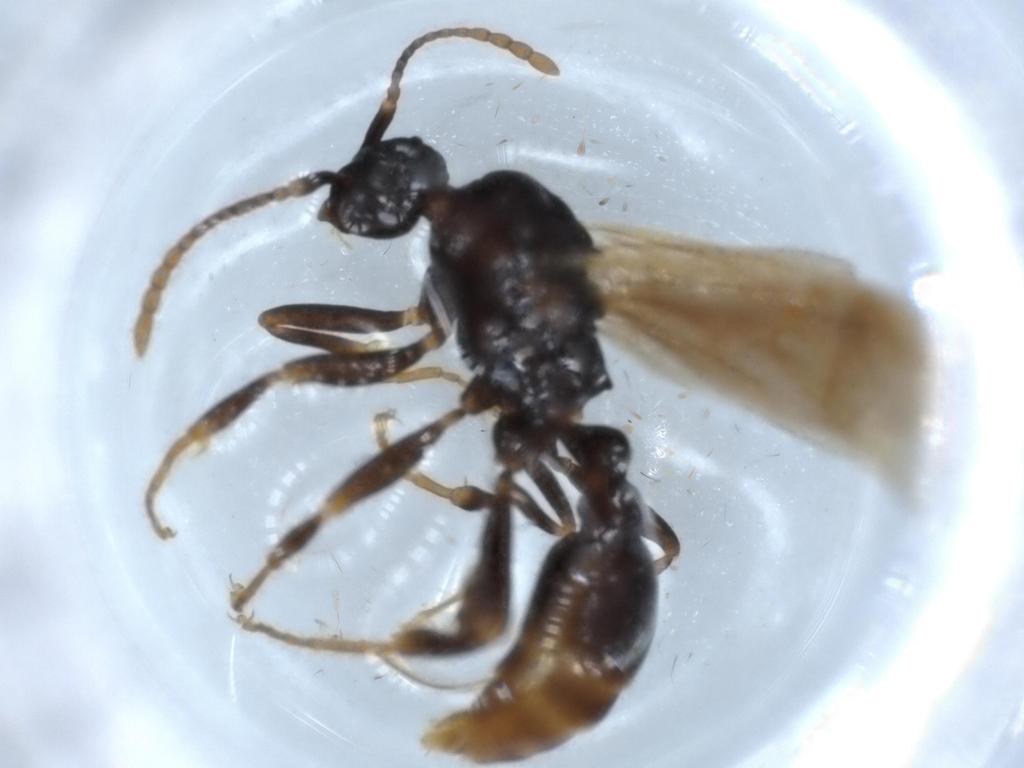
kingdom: Animalia
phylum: Arthropoda
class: Insecta
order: Hymenoptera
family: Formicidae
